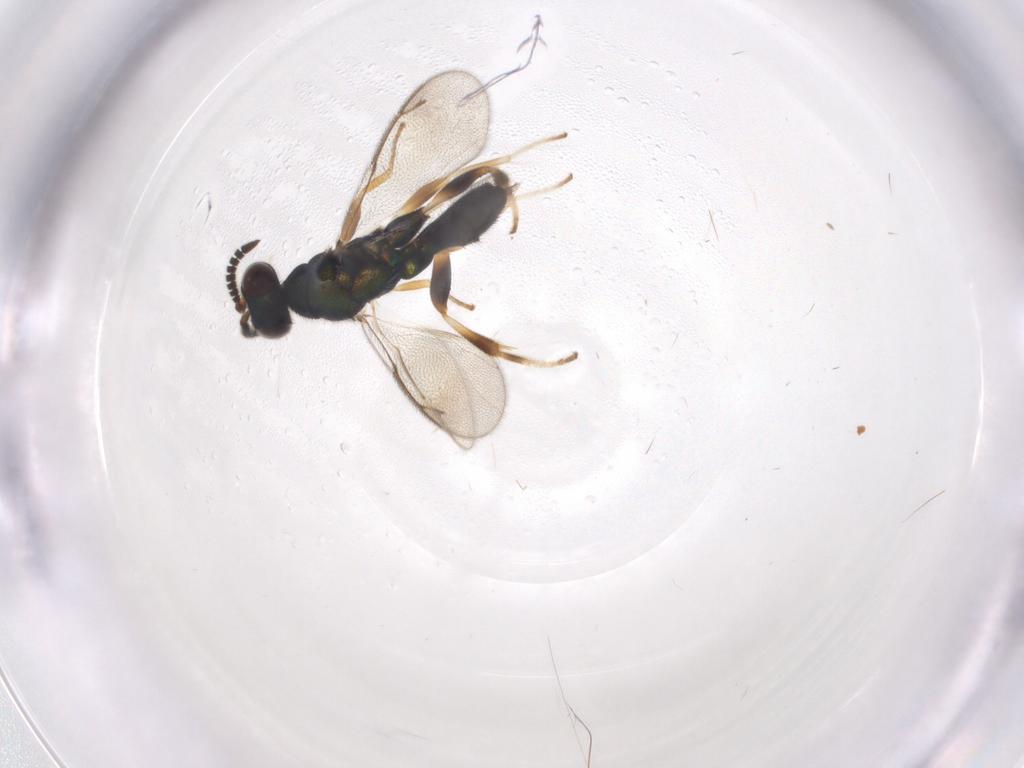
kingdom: Animalia
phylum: Arthropoda
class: Insecta
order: Hymenoptera
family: Cleonyminae
